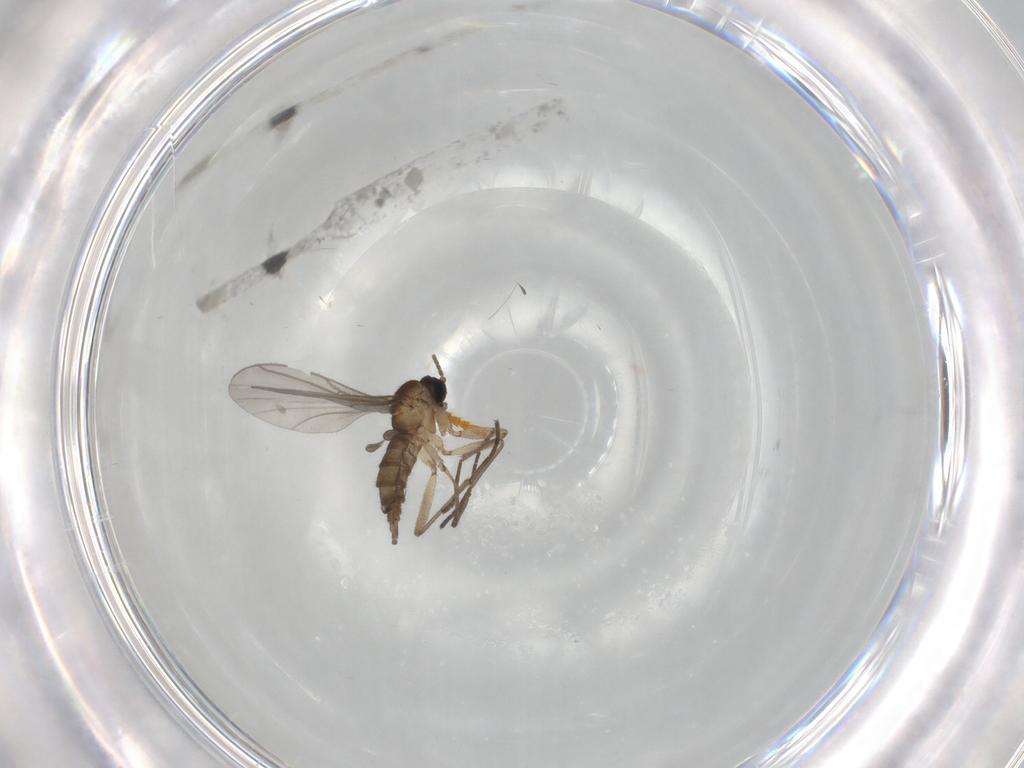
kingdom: Animalia
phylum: Arthropoda
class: Insecta
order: Diptera
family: Sciaridae
